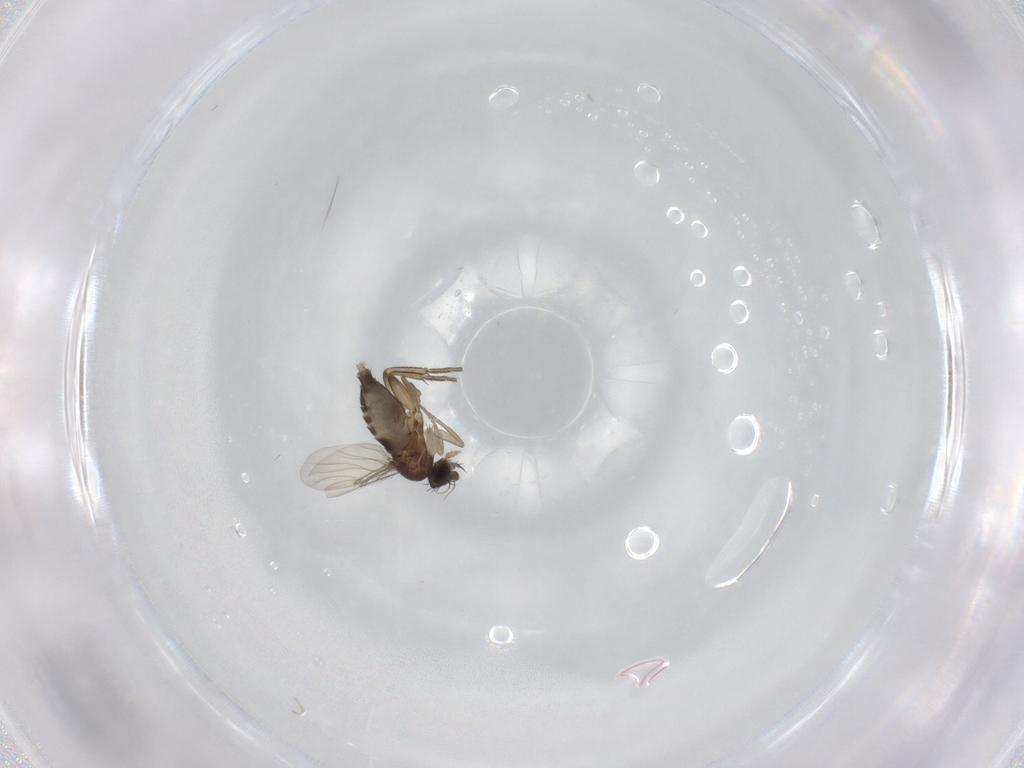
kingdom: Animalia
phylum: Arthropoda
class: Insecta
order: Diptera
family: Phoridae
